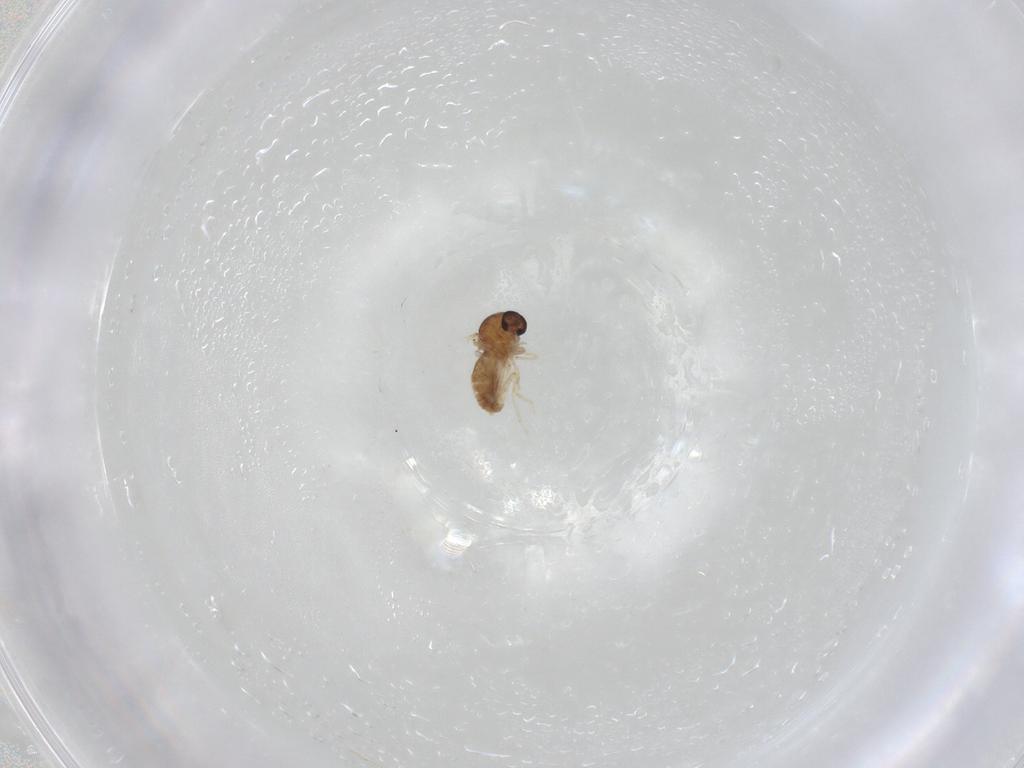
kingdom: Animalia
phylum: Arthropoda
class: Insecta
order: Diptera
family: Ceratopogonidae
